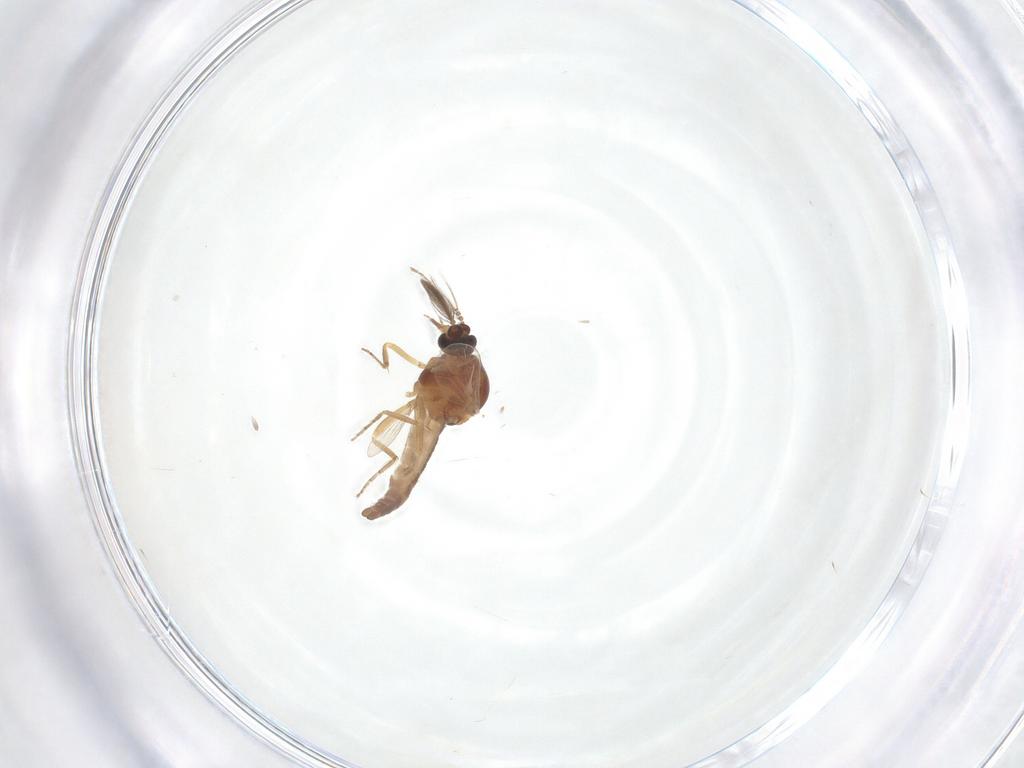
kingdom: Animalia
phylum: Arthropoda
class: Insecta
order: Diptera
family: Ceratopogonidae
